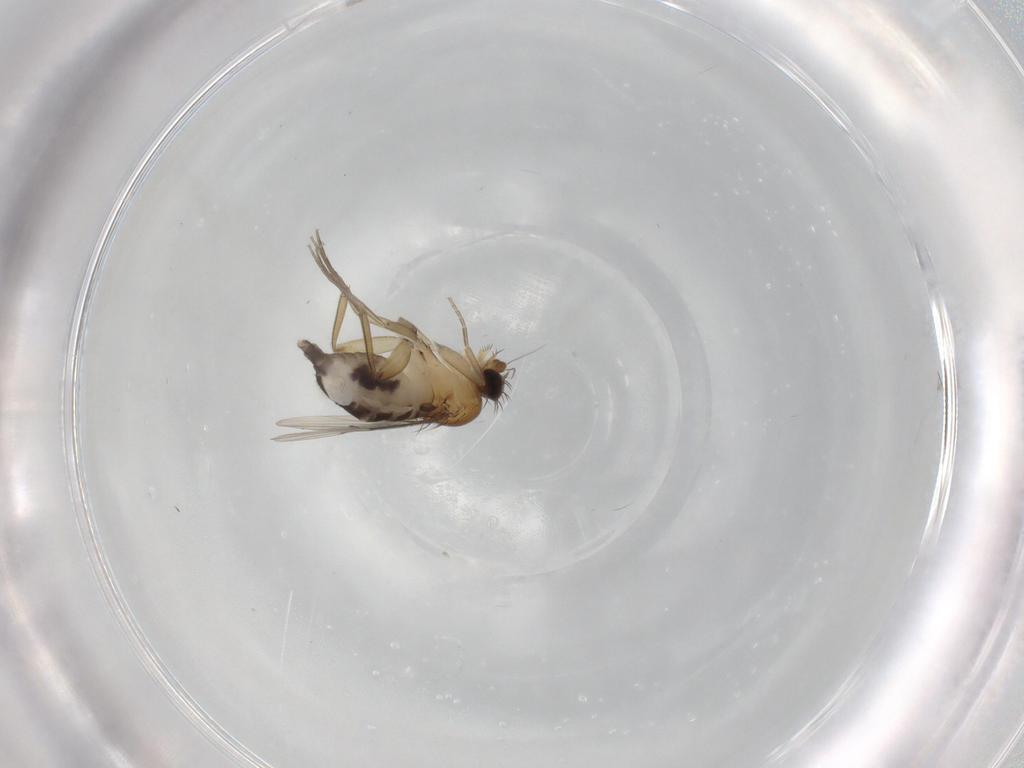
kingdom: Animalia
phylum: Arthropoda
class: Insecta
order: Diptera
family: Phoridae
